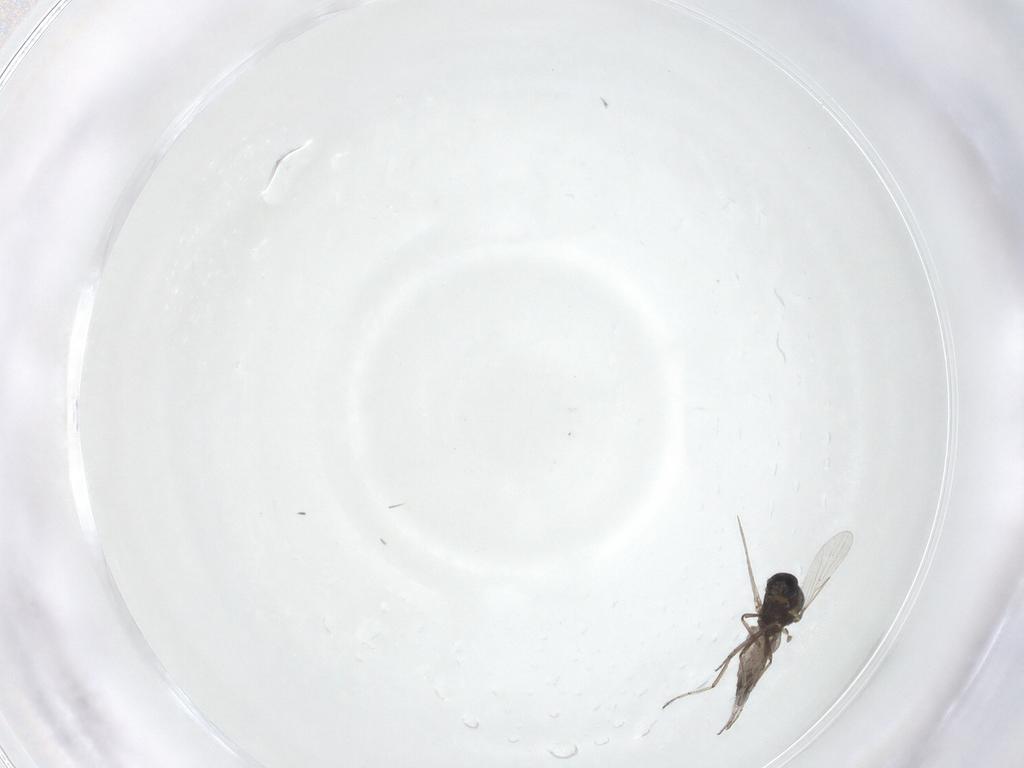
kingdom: Animalia
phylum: Arthropoda
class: Insecta
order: Diptera
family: Ceratopogonidae
